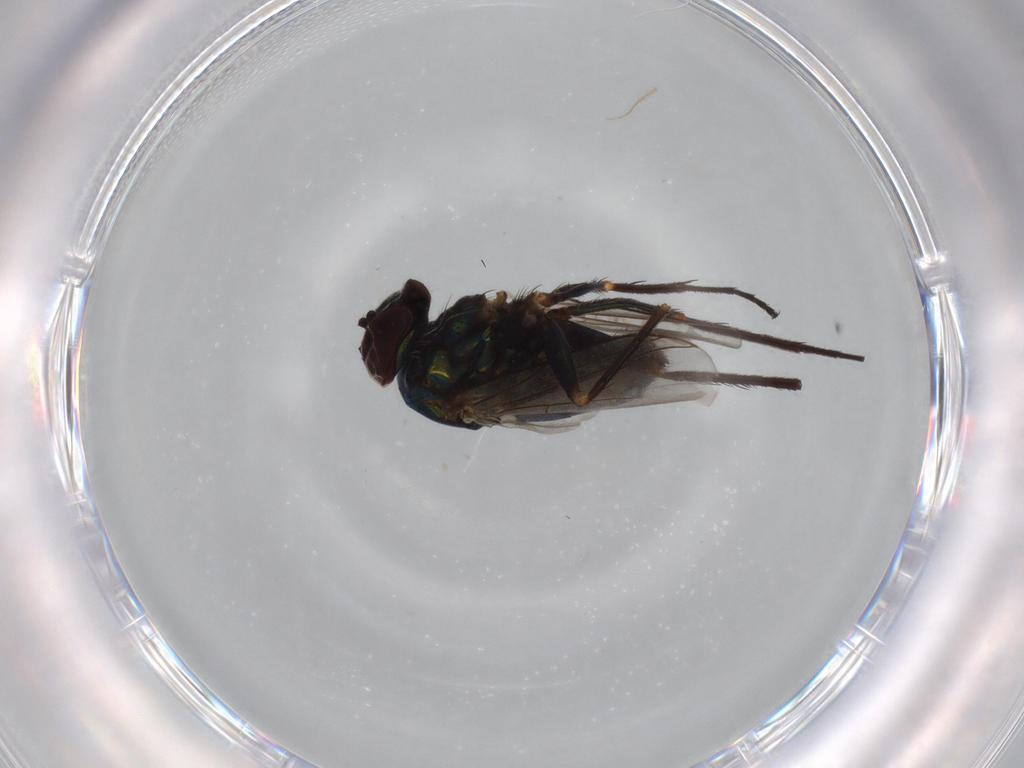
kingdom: Animalia
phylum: Arthropoda
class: Insecta
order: Diptera
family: Dolichopodidae
